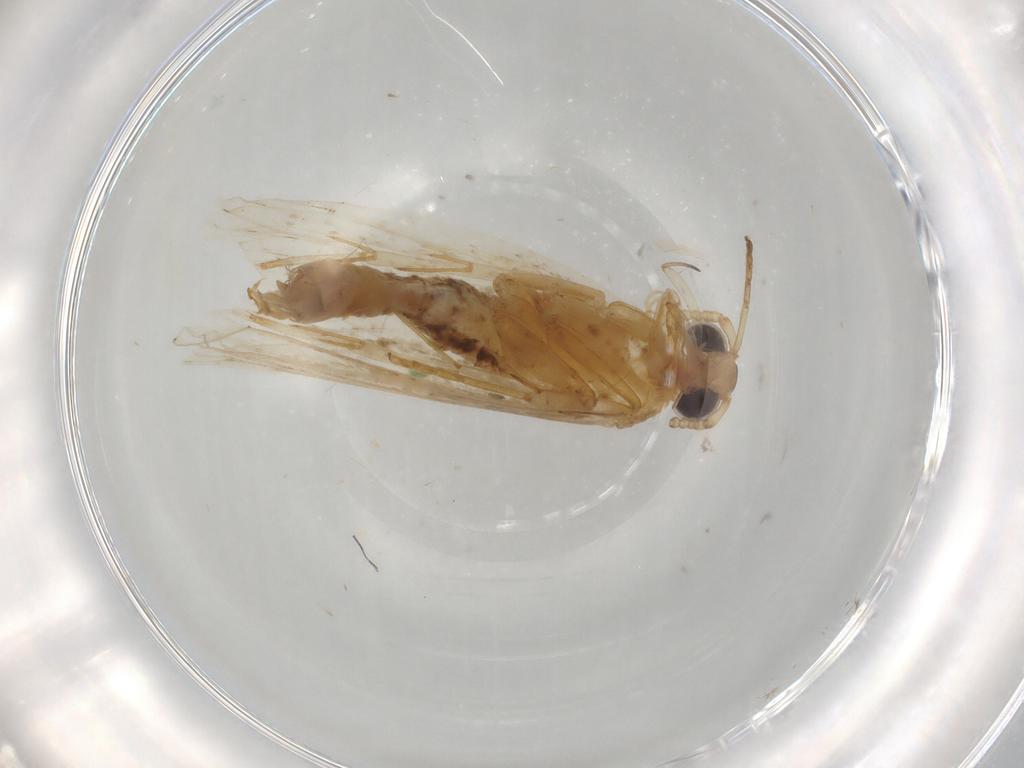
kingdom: Animalia
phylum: Arthropoda
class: Insecta
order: Lepidoptera
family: Lecithoceridae
